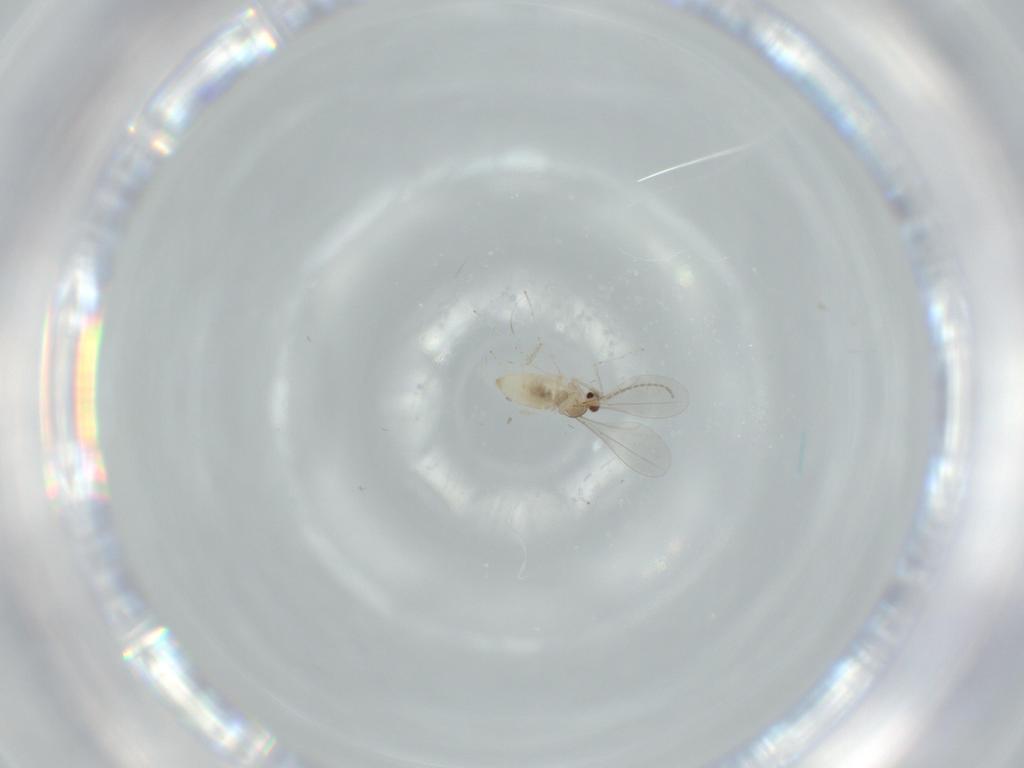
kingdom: Animalia
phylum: Arthropoda
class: Insecta
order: Diptera
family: Cecidomyiidae
